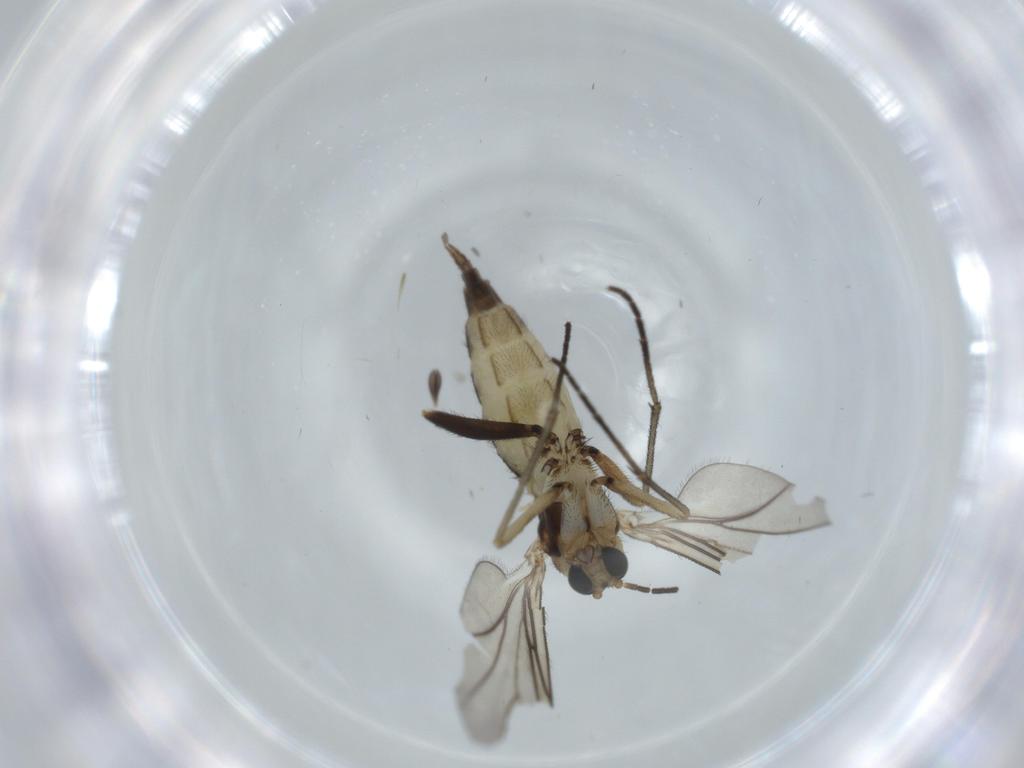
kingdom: Animalia
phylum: Arthropoda
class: Insecta
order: Diptera
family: Sciaridae
